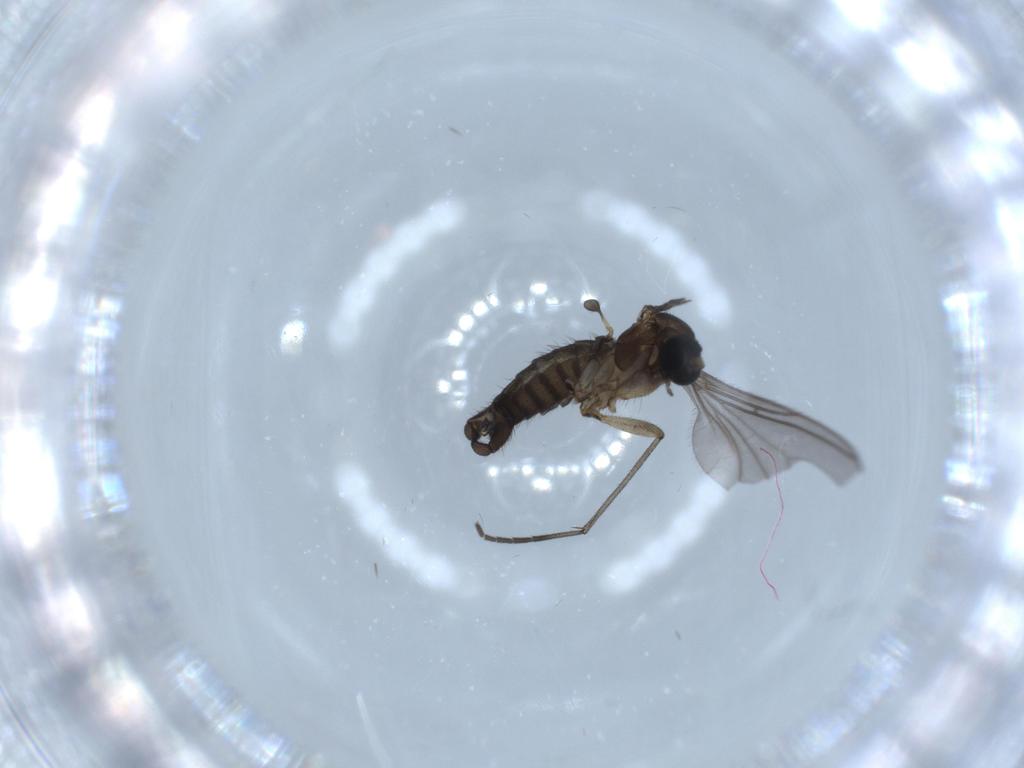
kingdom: Animalia
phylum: Arthropoda
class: Insecta
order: Diptera
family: Sciaridae
